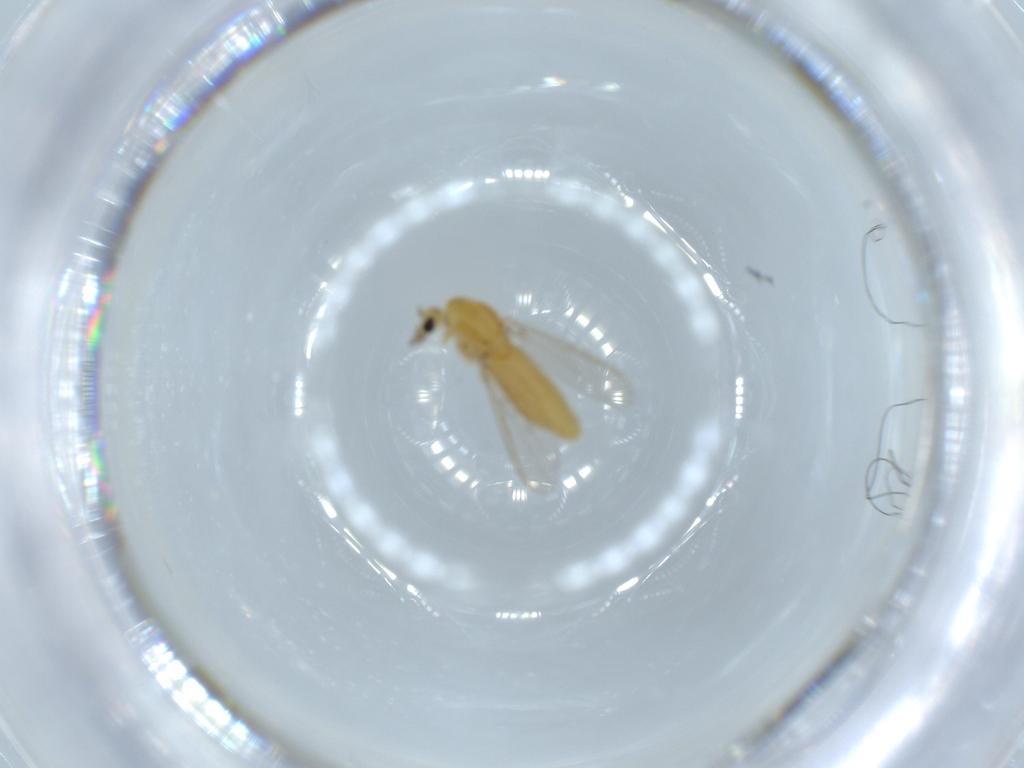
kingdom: Animalia
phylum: Arthropoda
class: Insecta
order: Diptera
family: Chironomidae
